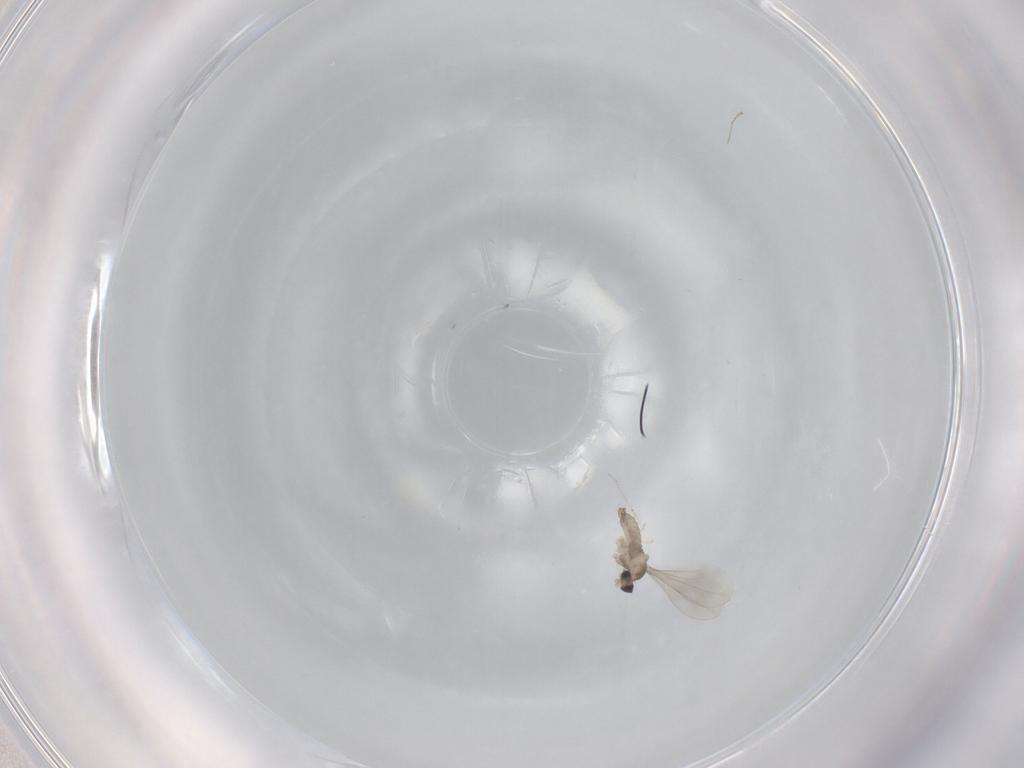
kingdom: Animalia
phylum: Arthropoda
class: Insecta
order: Diptera
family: Cecidomyiidae
